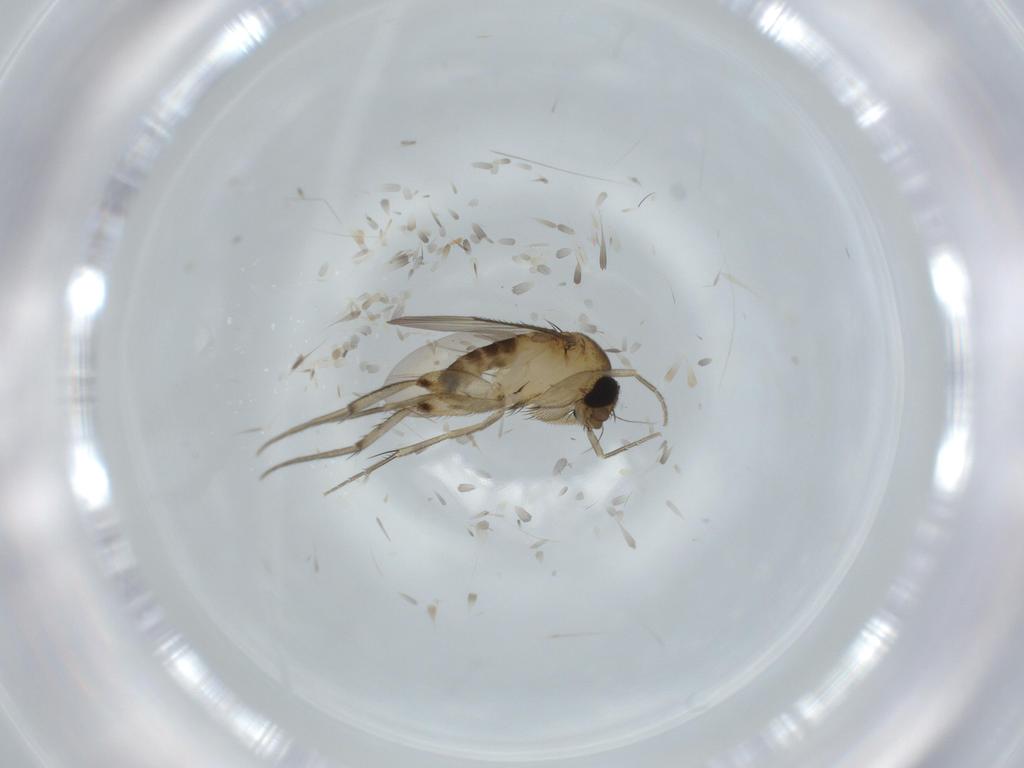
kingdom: Animalia
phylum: Arthropoda
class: Insecta
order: Diptera
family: Phoridae
